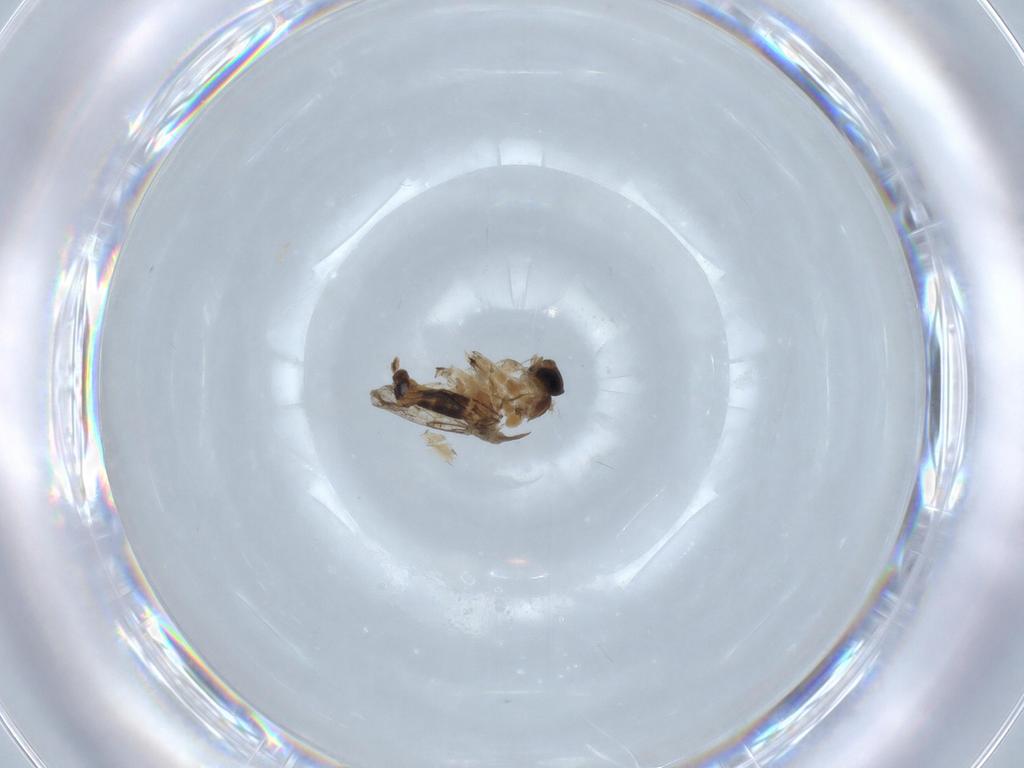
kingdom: Animalia
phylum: Arthropoda
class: Insecta
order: Diptera
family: Chironomidae
